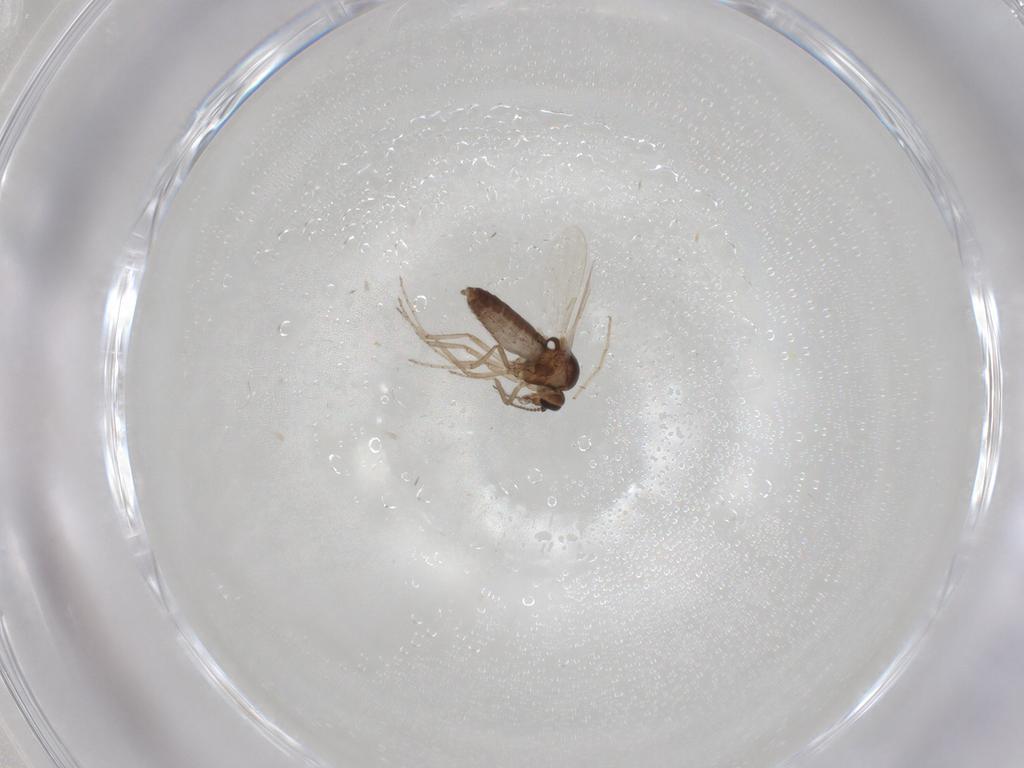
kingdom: Animalia
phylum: Arthropoda
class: Insecta
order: Diptera
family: Ceratopogonidae
